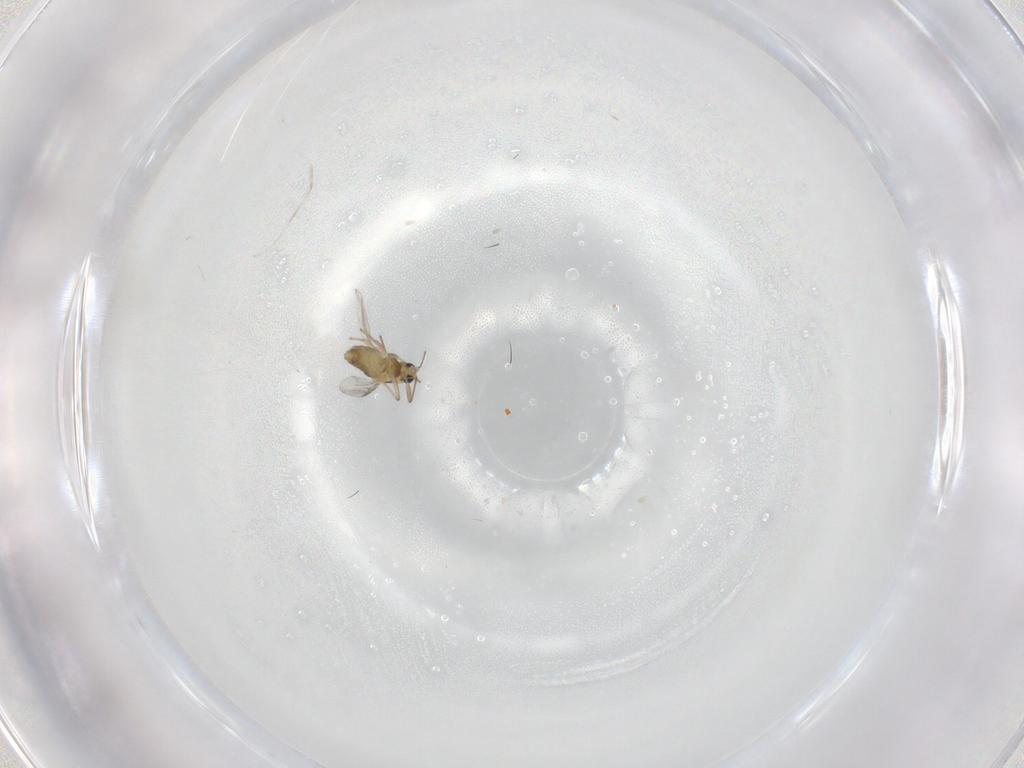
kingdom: Animalia
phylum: Arthropoda
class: Insecta
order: Diptera
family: Chironomidae
